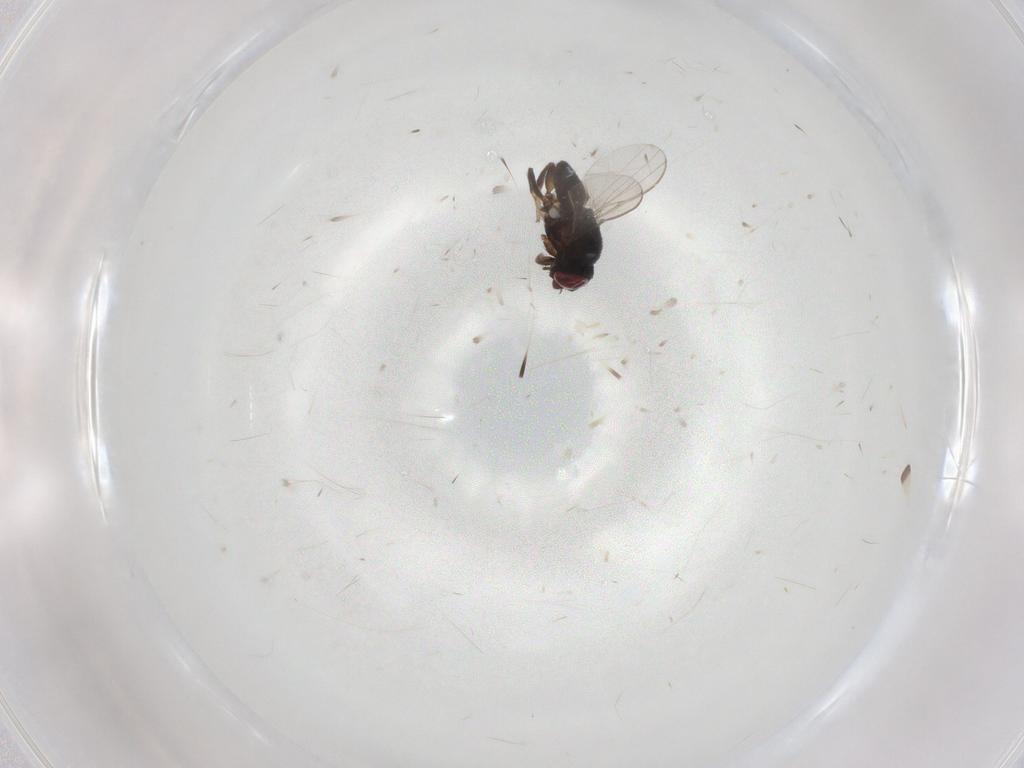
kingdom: Animalia
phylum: Arthropoda
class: Insecta
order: Diptera
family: Milichiidae
